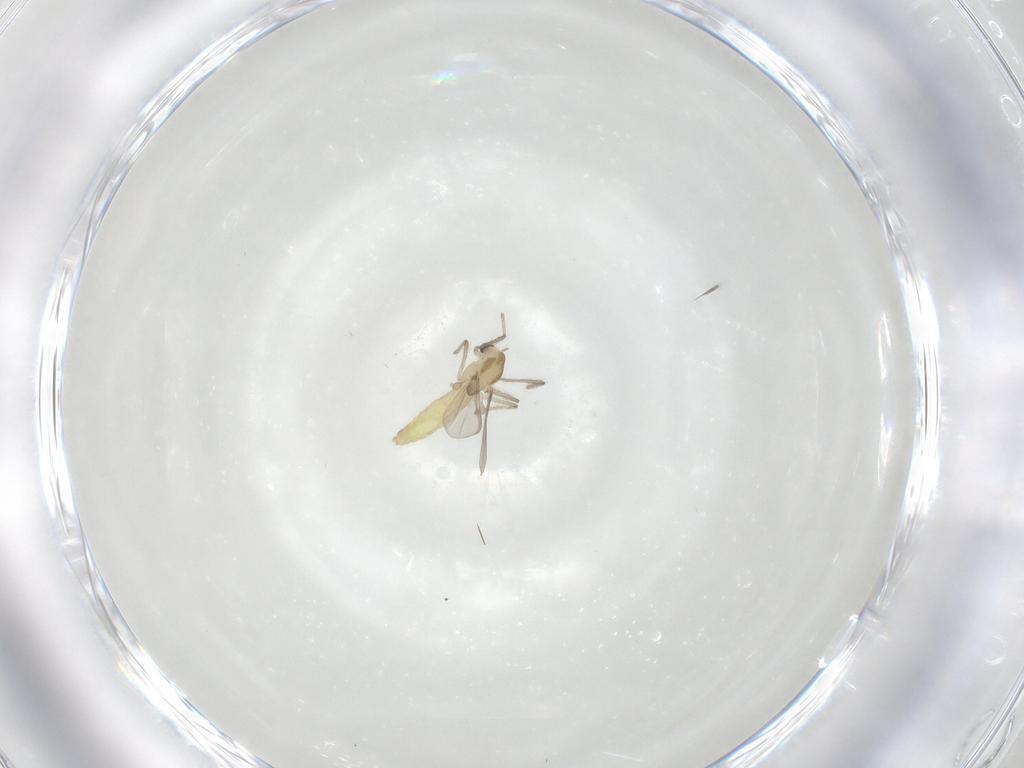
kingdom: Animalia
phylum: Arthropoda
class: Insecta
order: Diptera
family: Chironomidae
